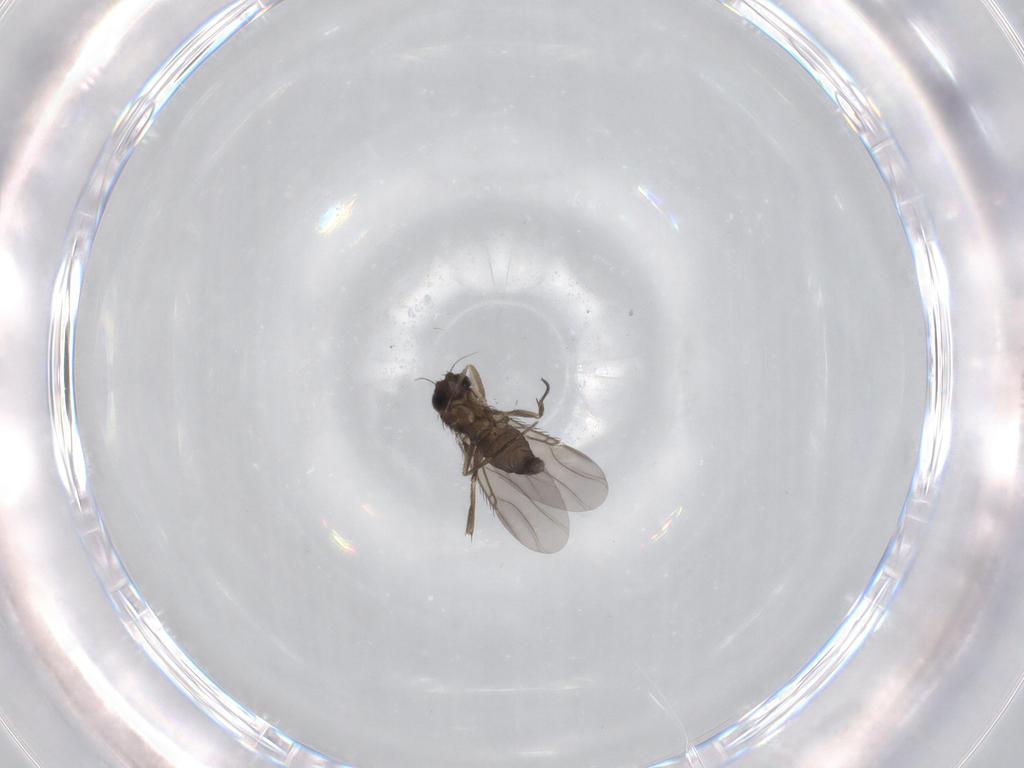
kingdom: Animalia
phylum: Arthropoda
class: Insecta
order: Diptera
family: Phoridae
